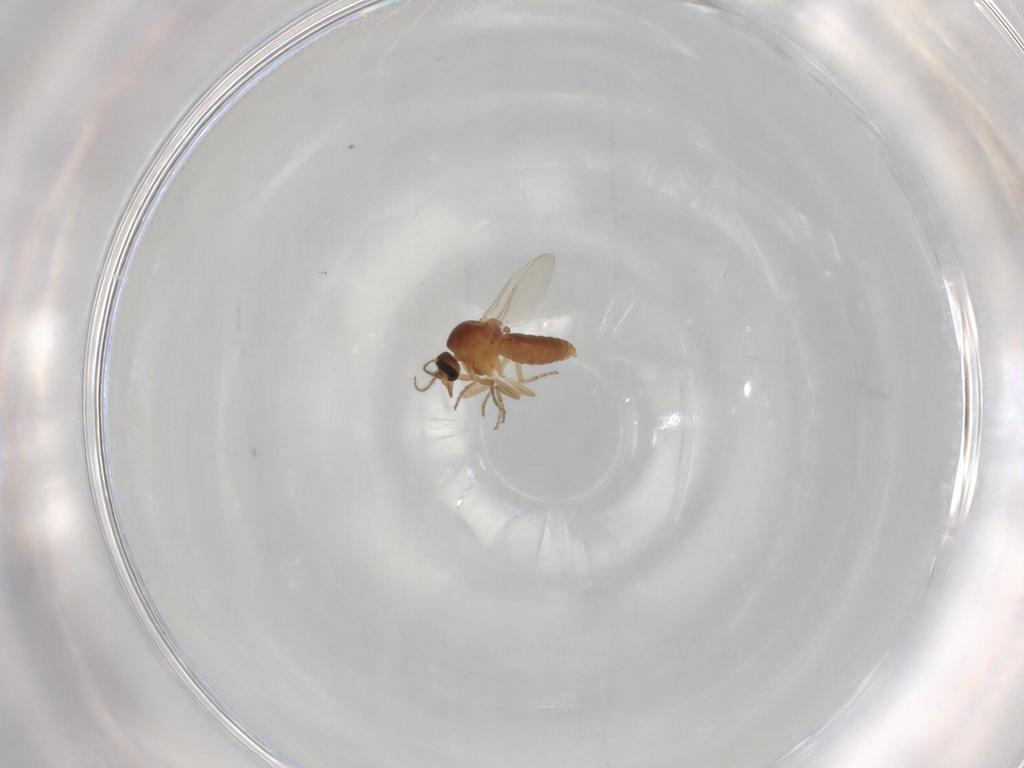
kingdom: Animalia
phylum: Arthropoda
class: Insecta
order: Diptera
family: Ceratopogonidae
